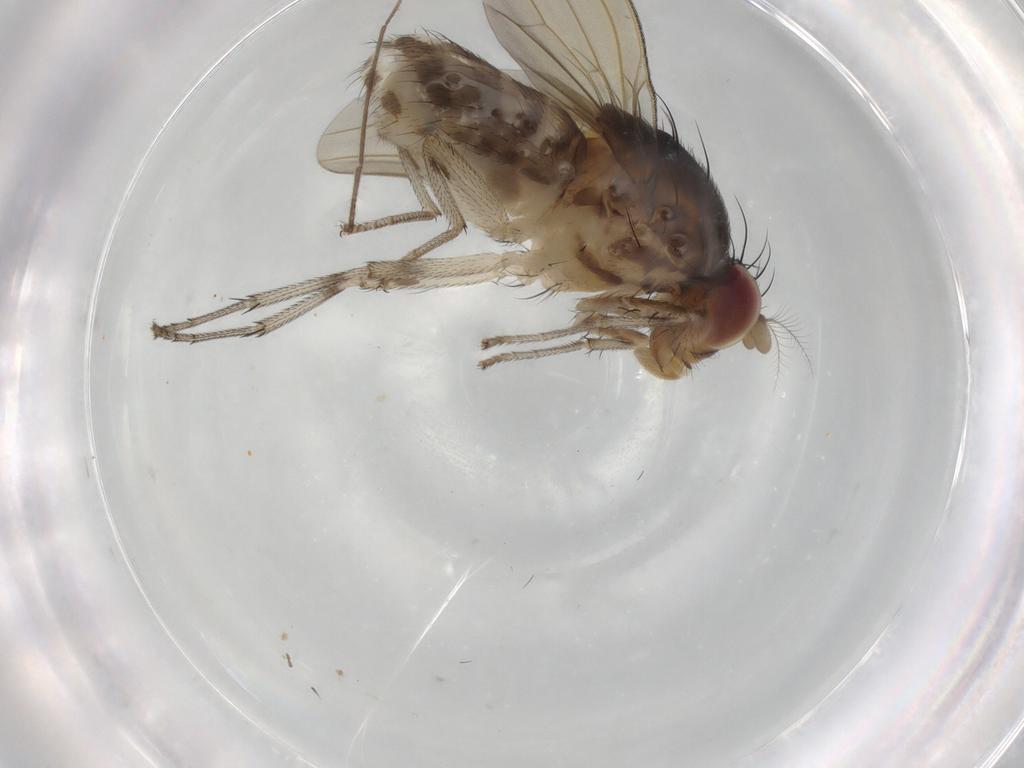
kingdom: Animalia
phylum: Arthropoda
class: Insecta
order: Diptera
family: Chironomidae
